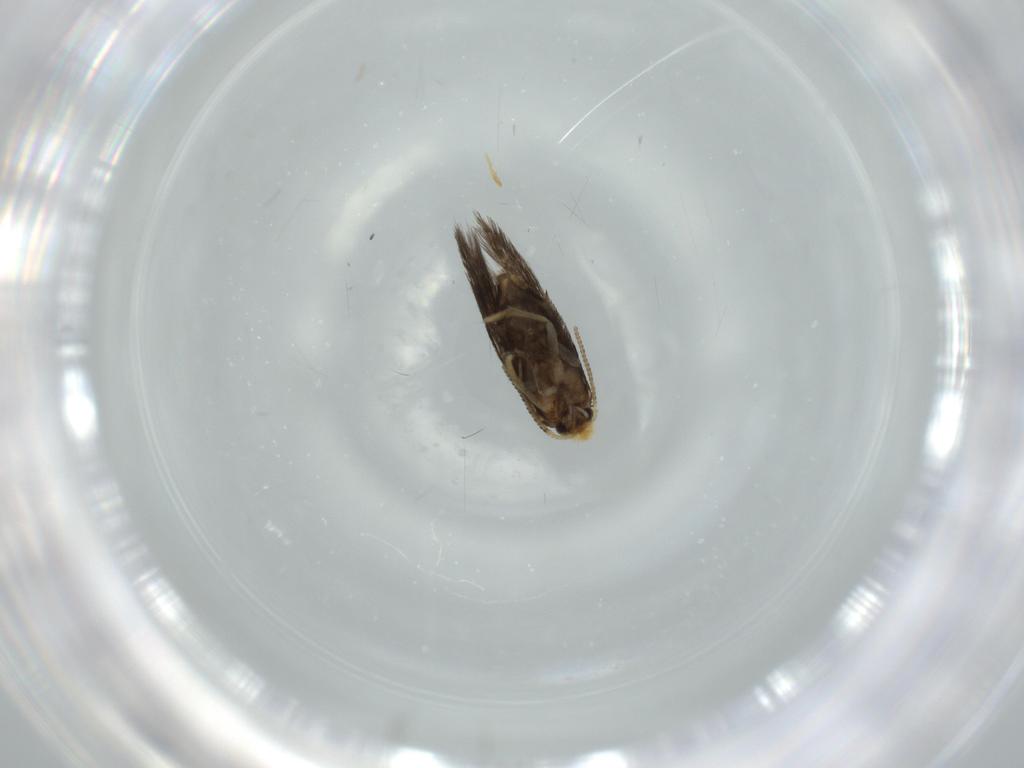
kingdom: Animalia
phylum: Arthropoda
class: Insecta
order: Lepidoptera
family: Nepticulidae
